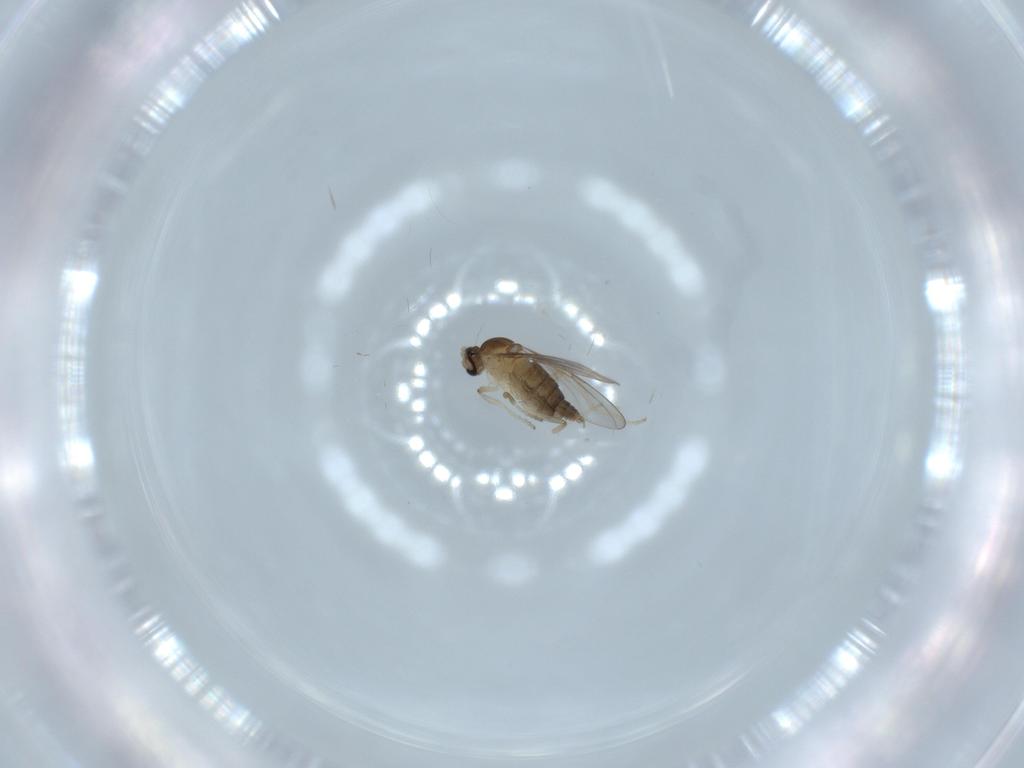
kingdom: Animalia
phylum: Arthropoda
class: Insecta
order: Diptera
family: Cecidomyiidae
